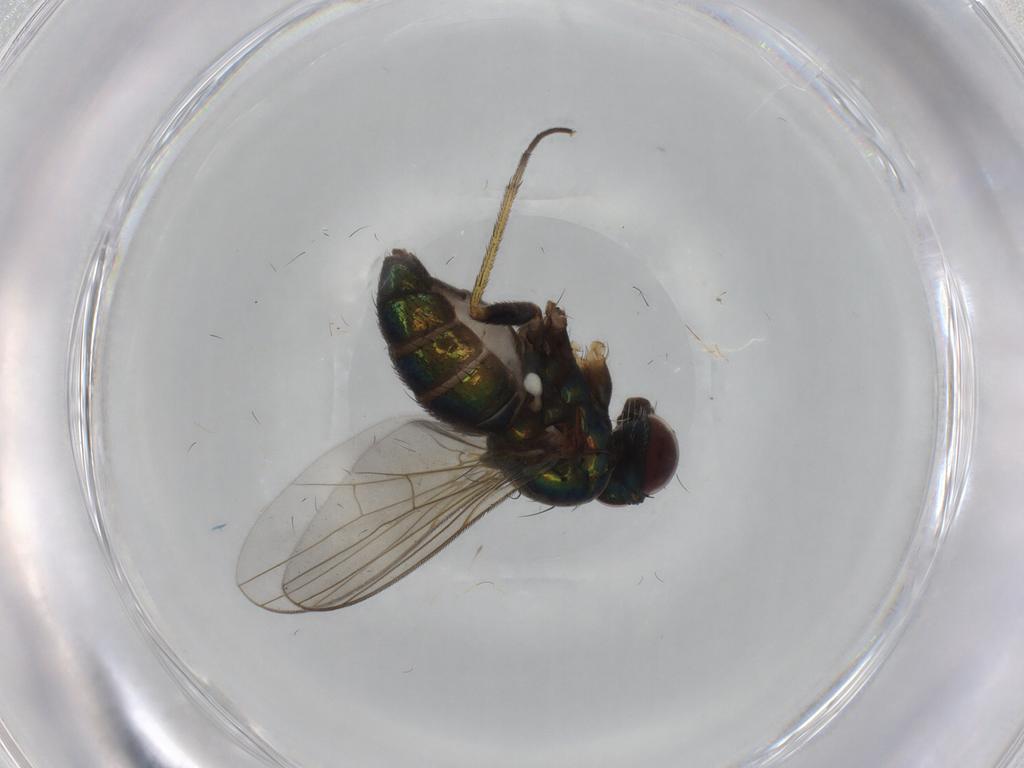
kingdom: Animalia
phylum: Arthropoda
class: Insecta
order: Diptera
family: Dolichopodidae
